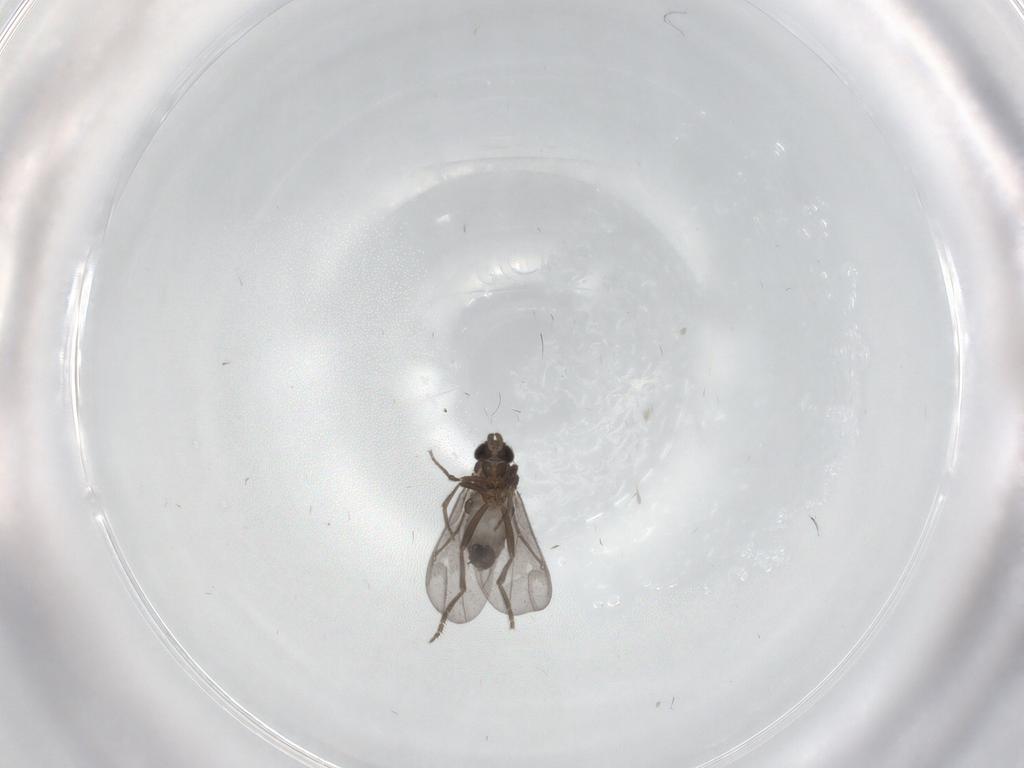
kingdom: Animalia
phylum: Arthropoda
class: Insecta
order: Diptera
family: Phoridae
